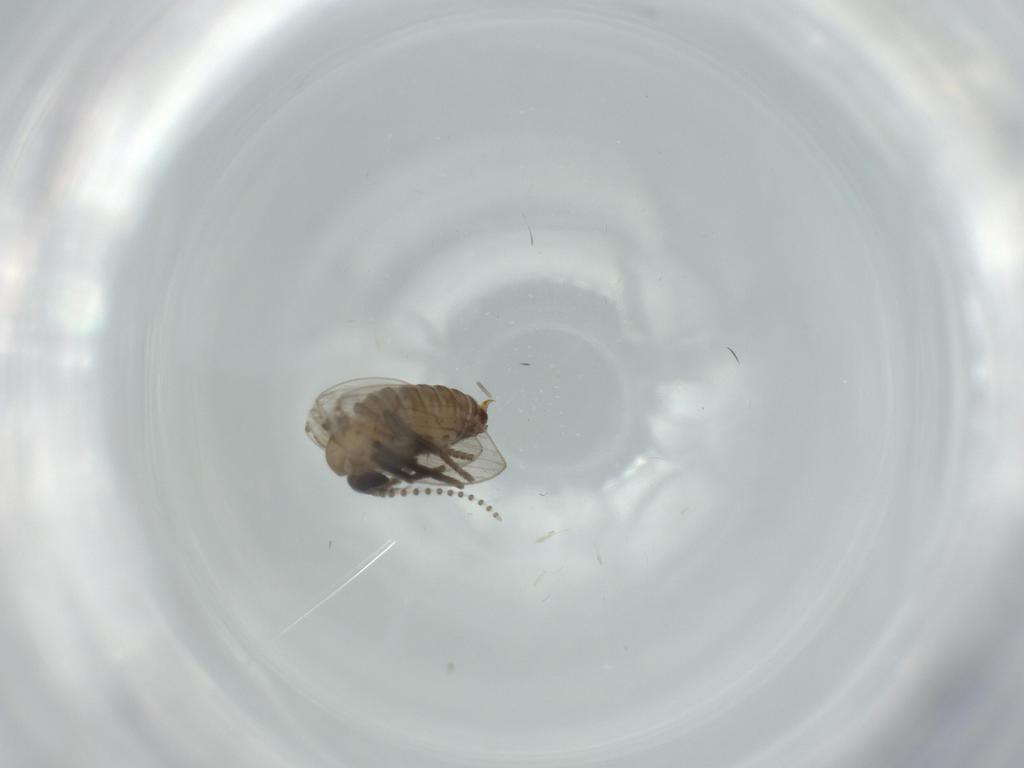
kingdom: Animalia
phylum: Arthropoda
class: Insecta
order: Diptera
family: Psychodidae
